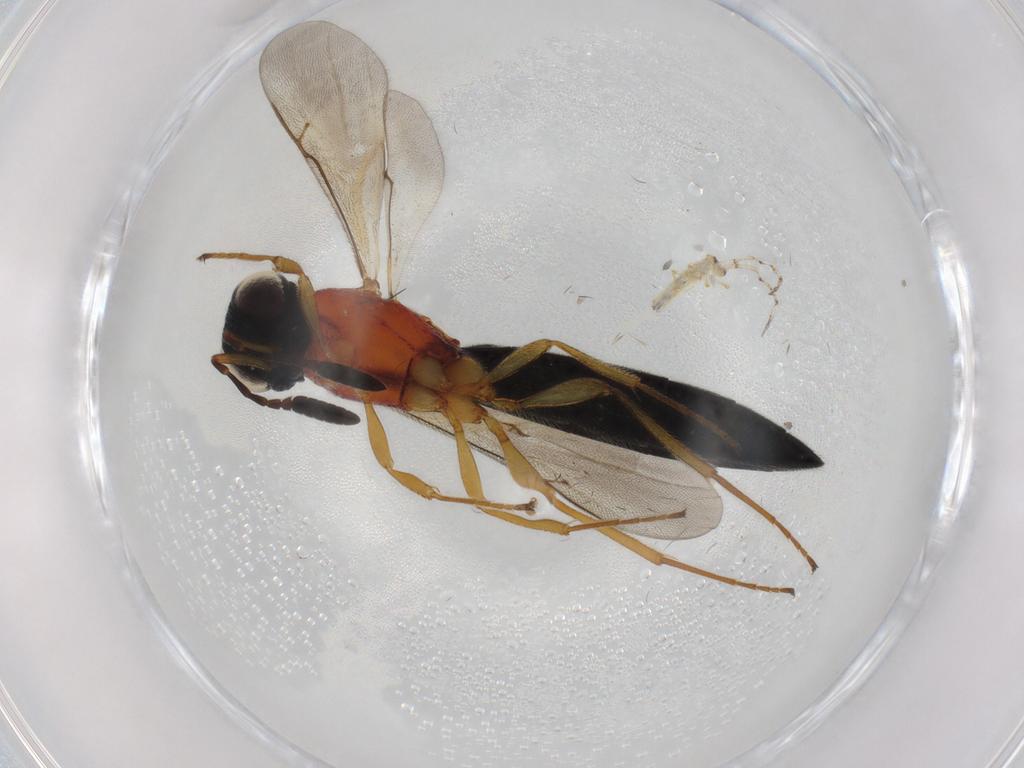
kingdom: Animalia
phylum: Arthropoda
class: Insecta
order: Hymenoptera
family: Scelionidae
